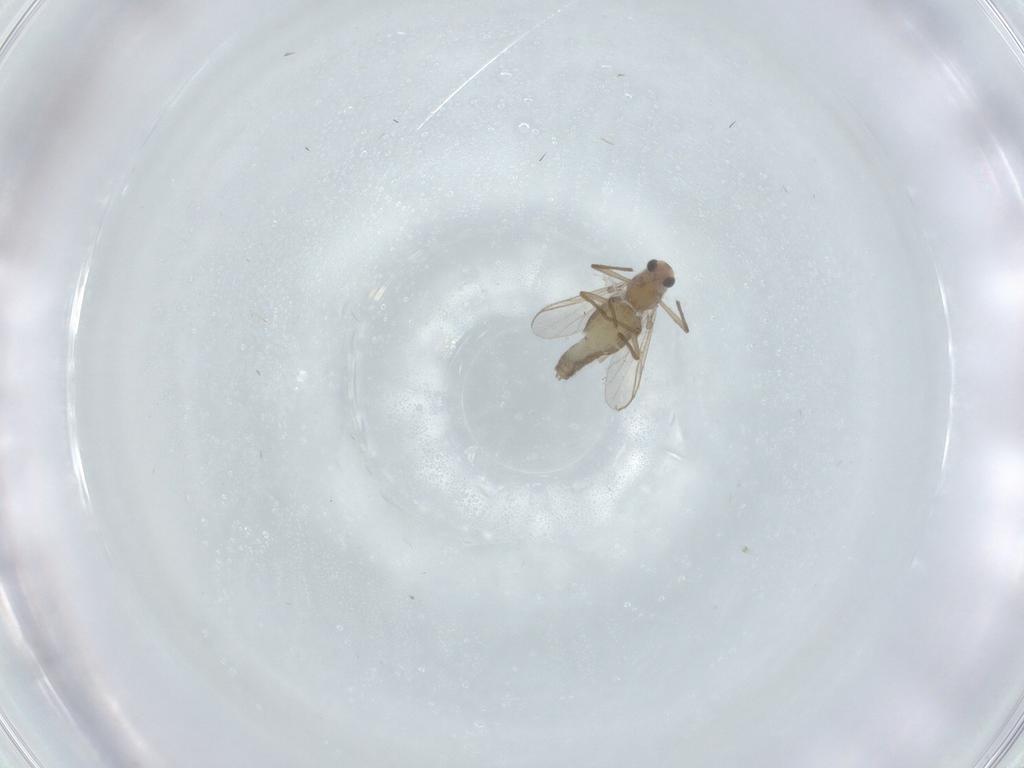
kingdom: Animalia
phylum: Arthropoda
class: Insecta
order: Diptera
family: Chironomidae
